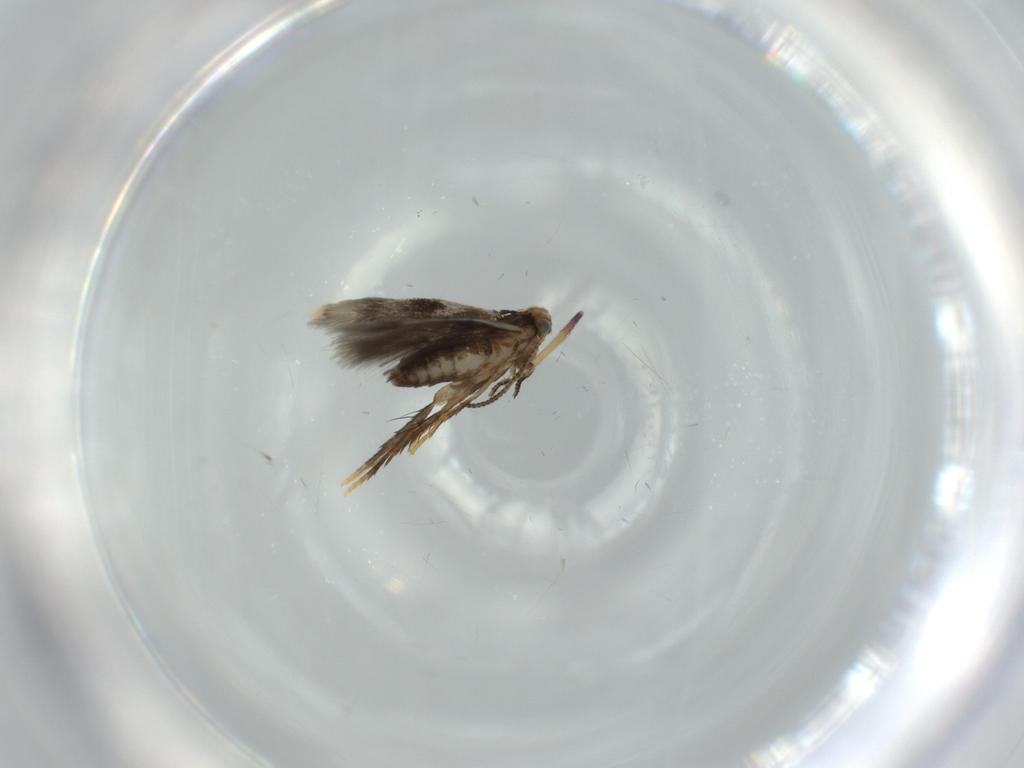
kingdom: Animalia
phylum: Arthropoda
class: Insecta
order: Lepidoptera
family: Nepticulidae
